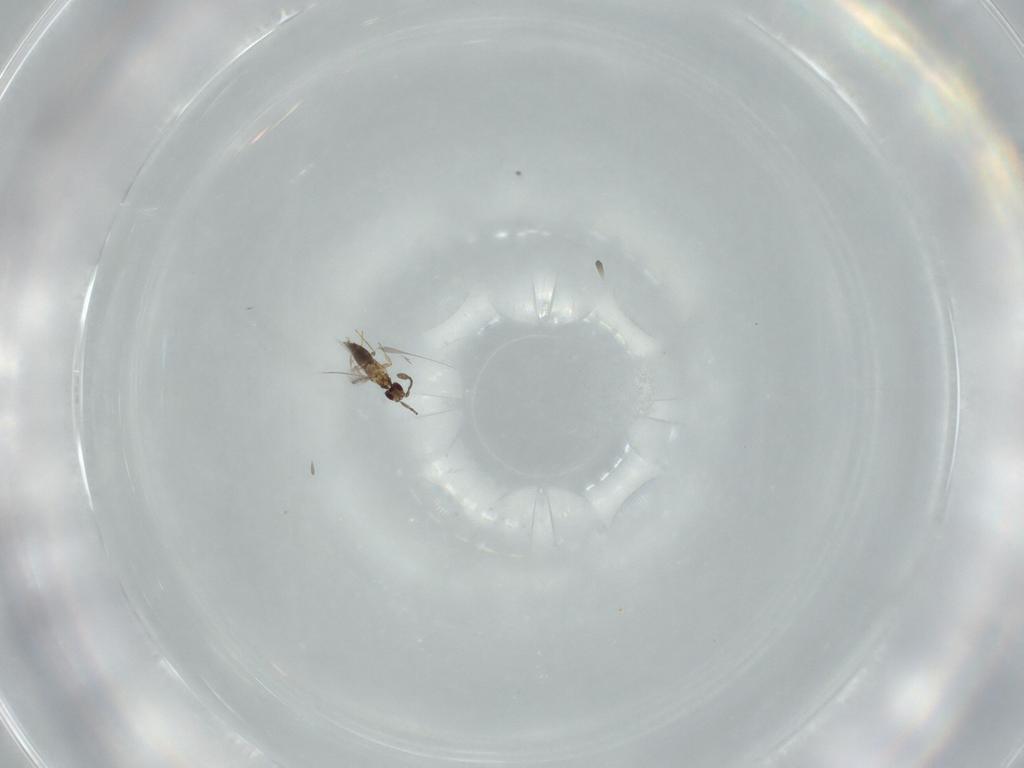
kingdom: Animalia
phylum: Arthropoda
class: Insecta
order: Hymenoptera
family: Mymaridae
